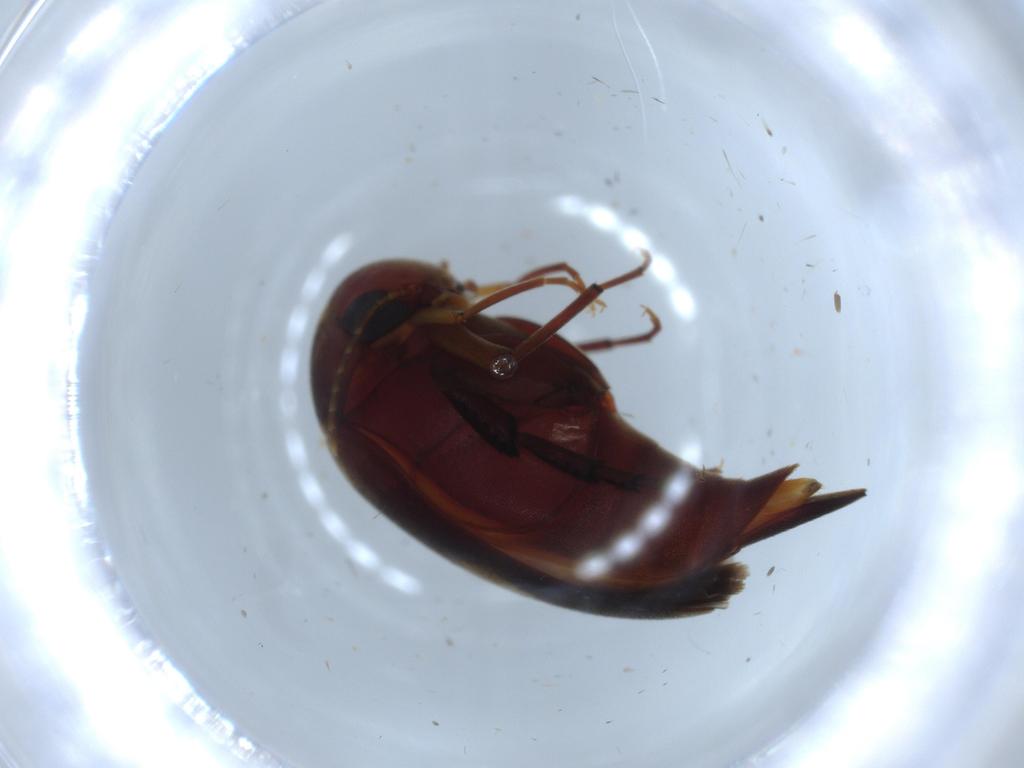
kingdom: Animalia
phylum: Arthropoda
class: Insecta
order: Coleoptera
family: Mordellidae
